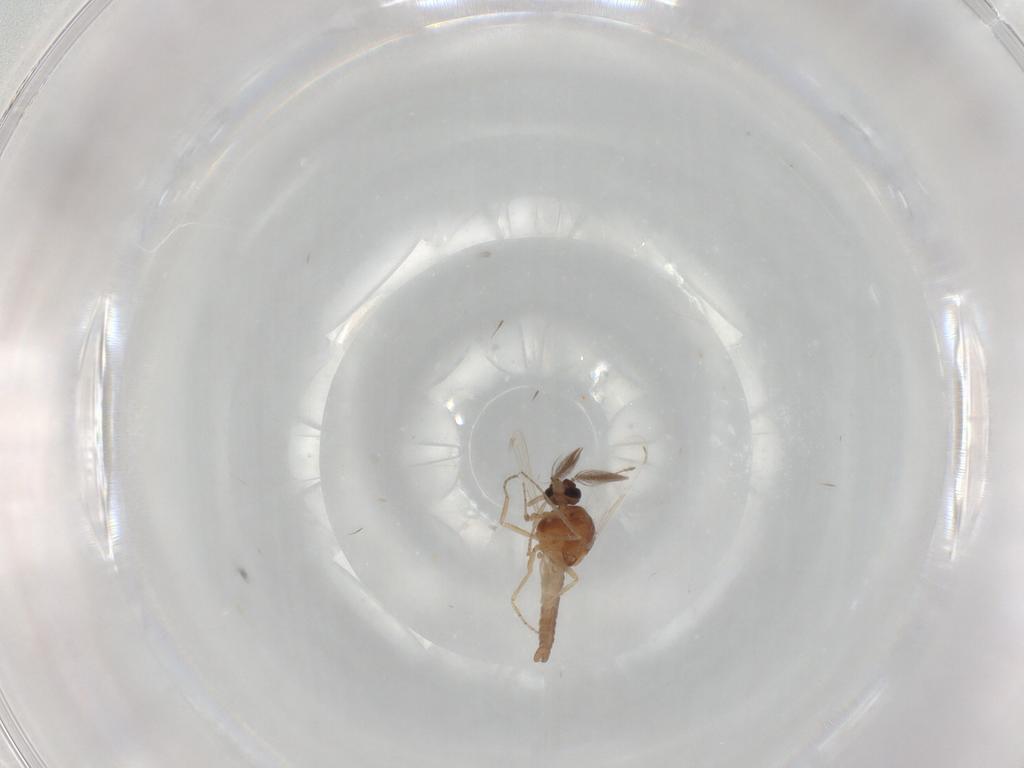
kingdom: Animalia
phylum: Arthropoda
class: Insecta
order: Diptera
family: Ceratopogonidae
